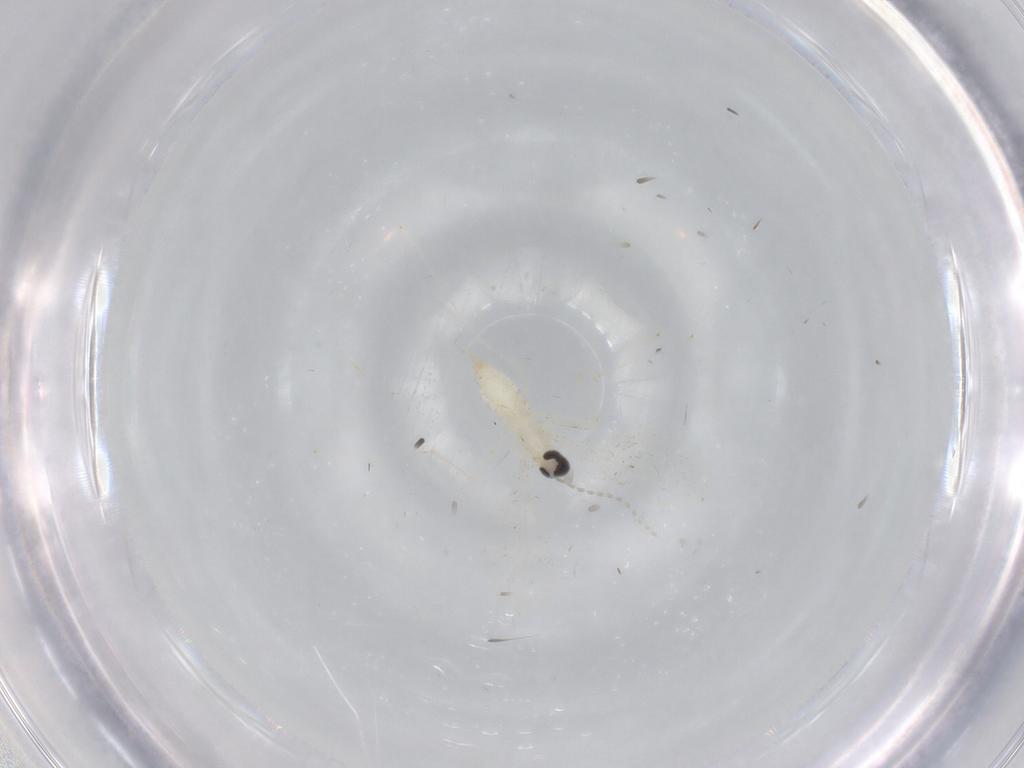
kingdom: Animalia
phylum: Arthropoda
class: Insecta
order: Diptera
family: Cecidomyiidae
